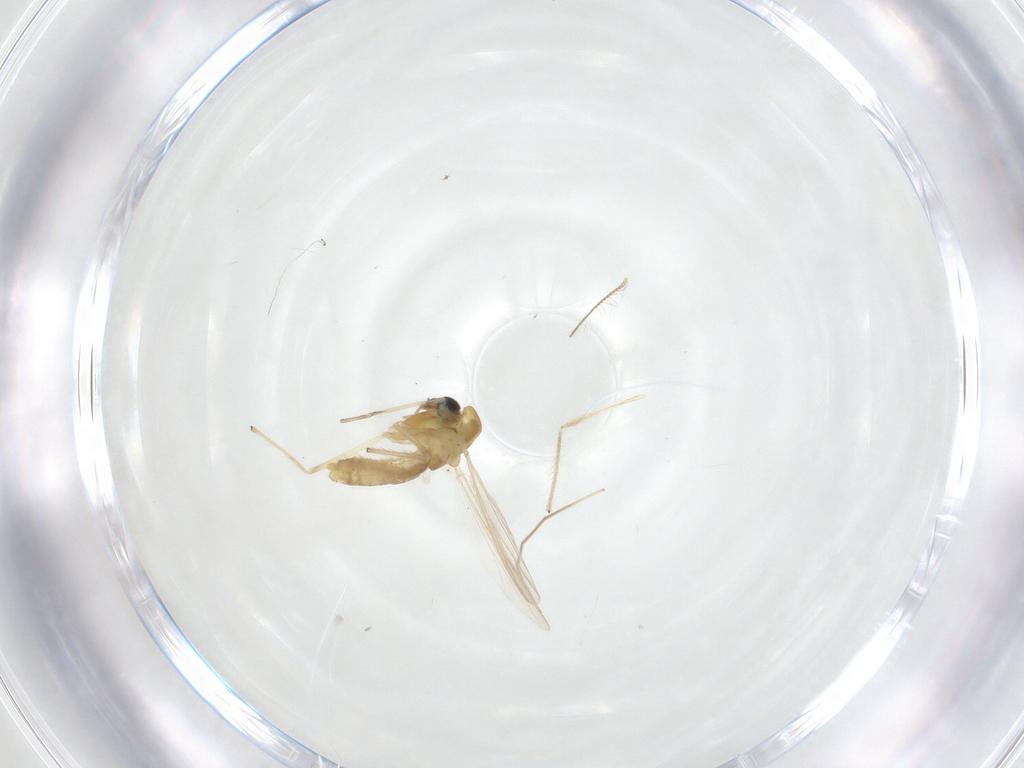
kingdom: Animalia
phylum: Arthropoda
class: Insecta
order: Diptera
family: Chironomidae
